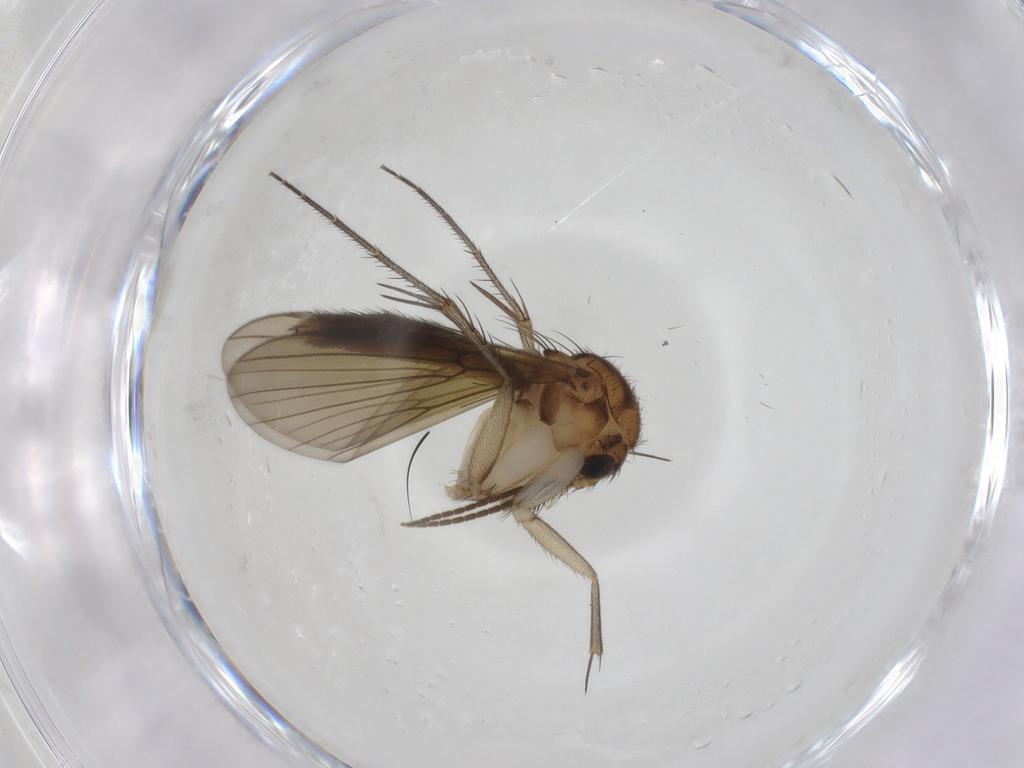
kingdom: Animalia
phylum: Arthropoda
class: Insecta
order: Diptera
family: Mycetophilidae
